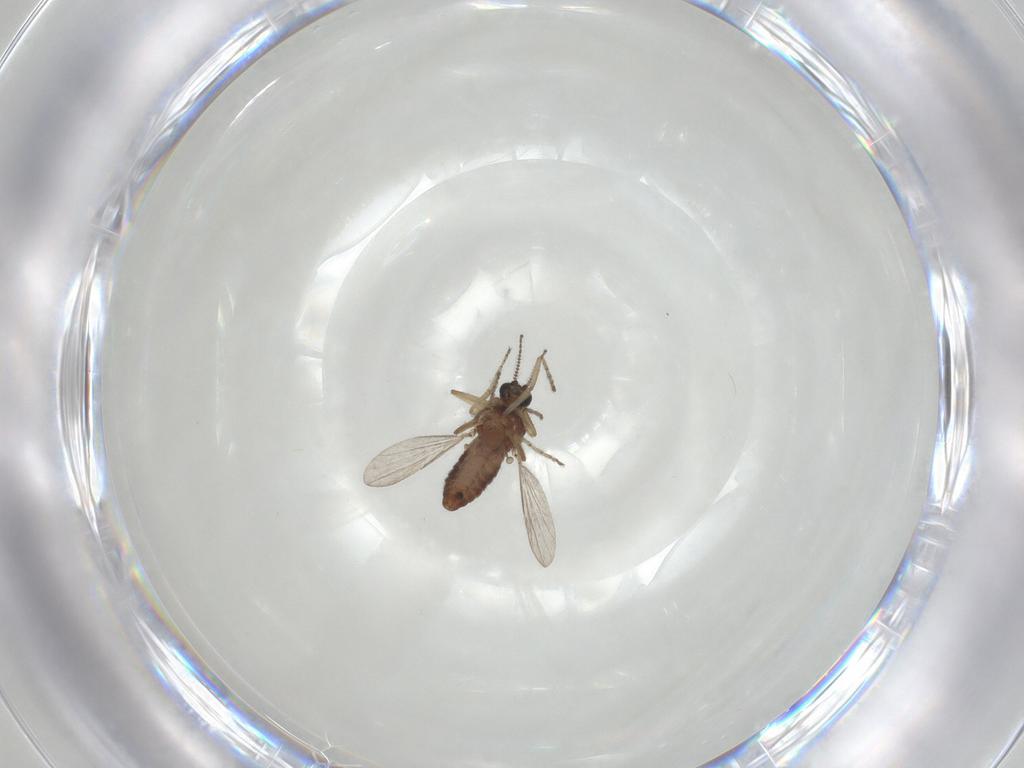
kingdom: Animalia
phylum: Arthropoda
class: Insecta
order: Diptera
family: Ceratopogonidae
